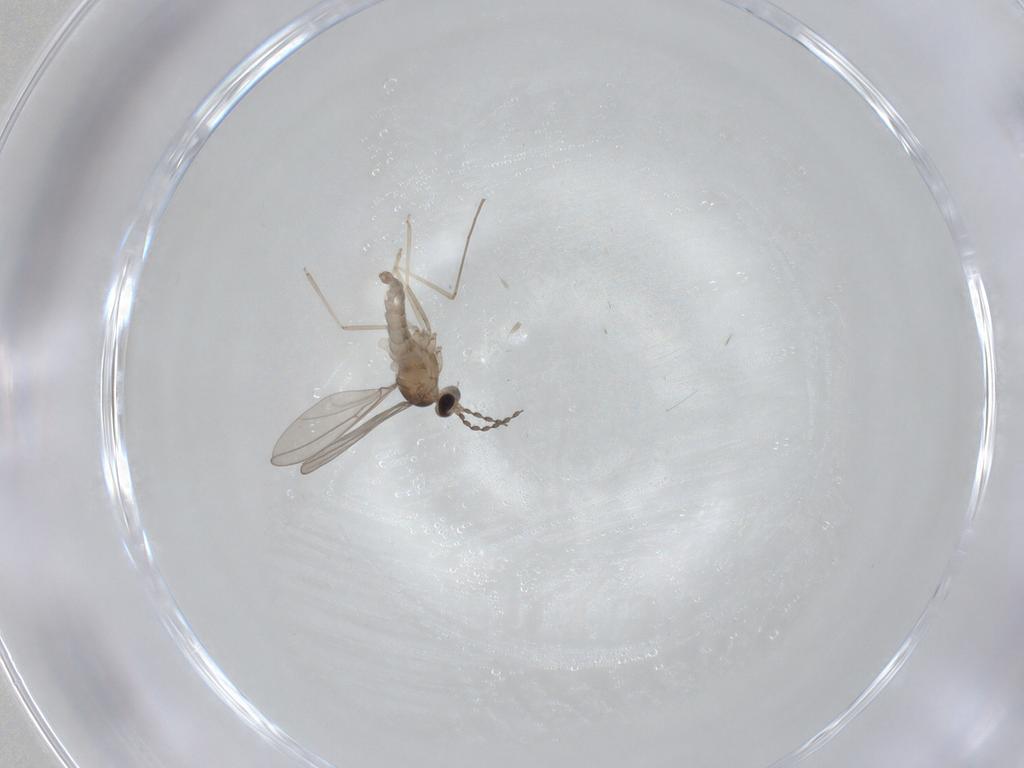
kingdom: Animalia
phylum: Arthropoda
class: Insecta
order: Diptera
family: Cecidomyiidae
